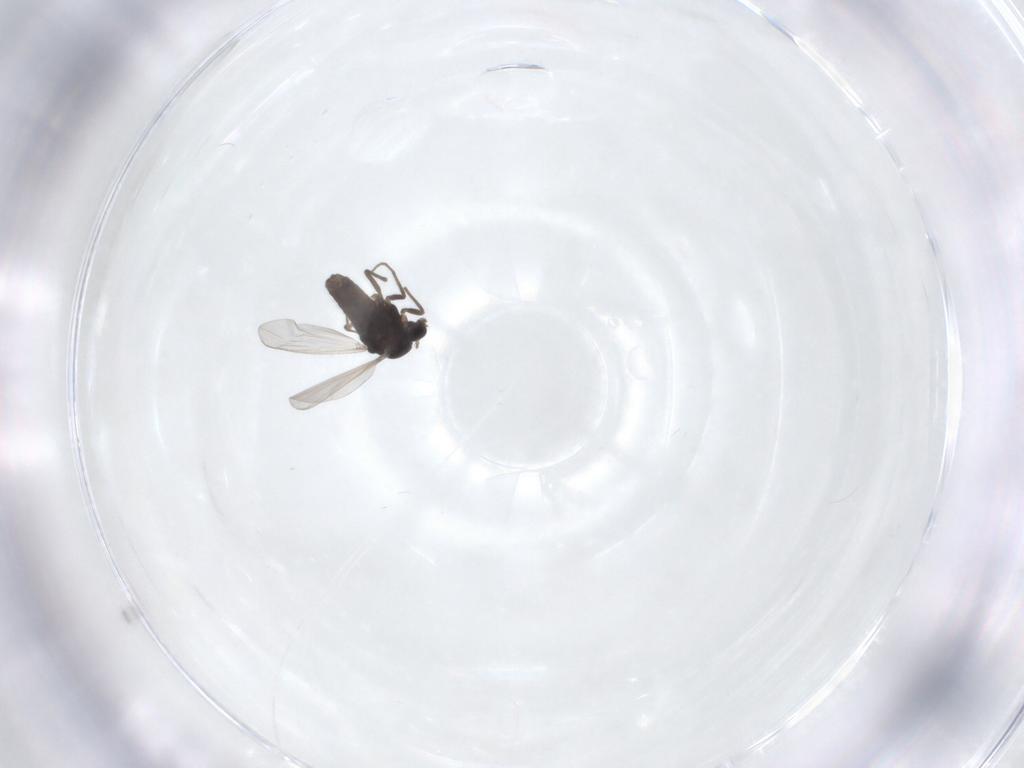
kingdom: Animalia
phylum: Arthropoda
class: Insecta
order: Diptera
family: Chironomidae
